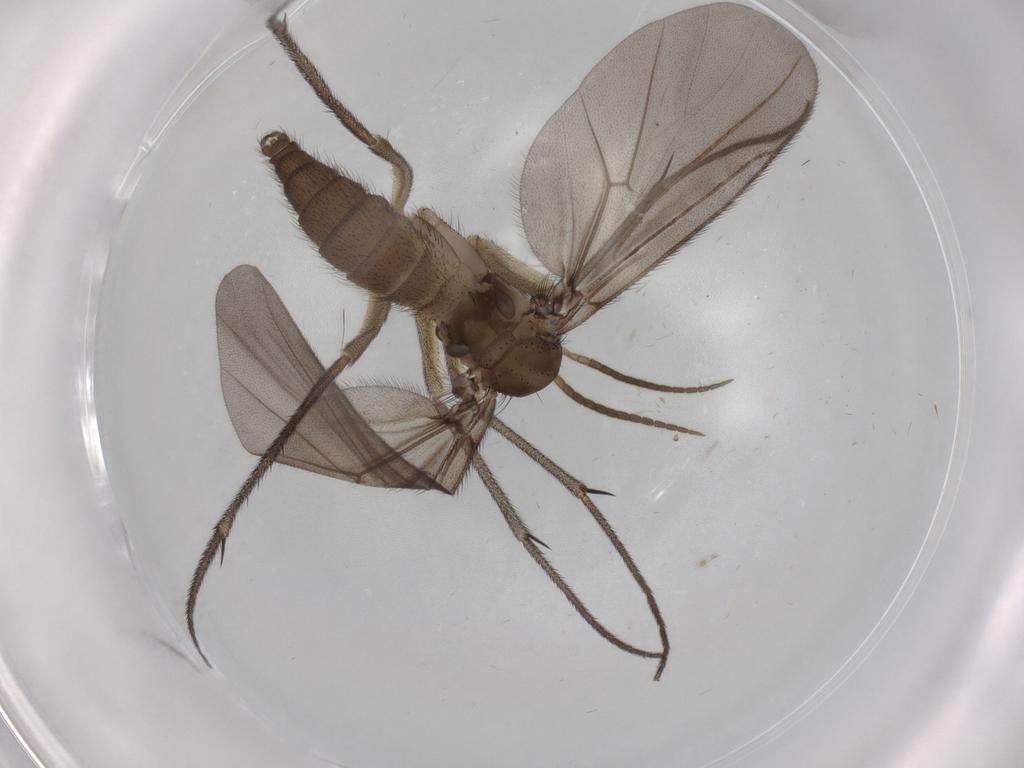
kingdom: Animalia
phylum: Arthropoda
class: Insecta
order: Diptera
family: Diadocidiidae
